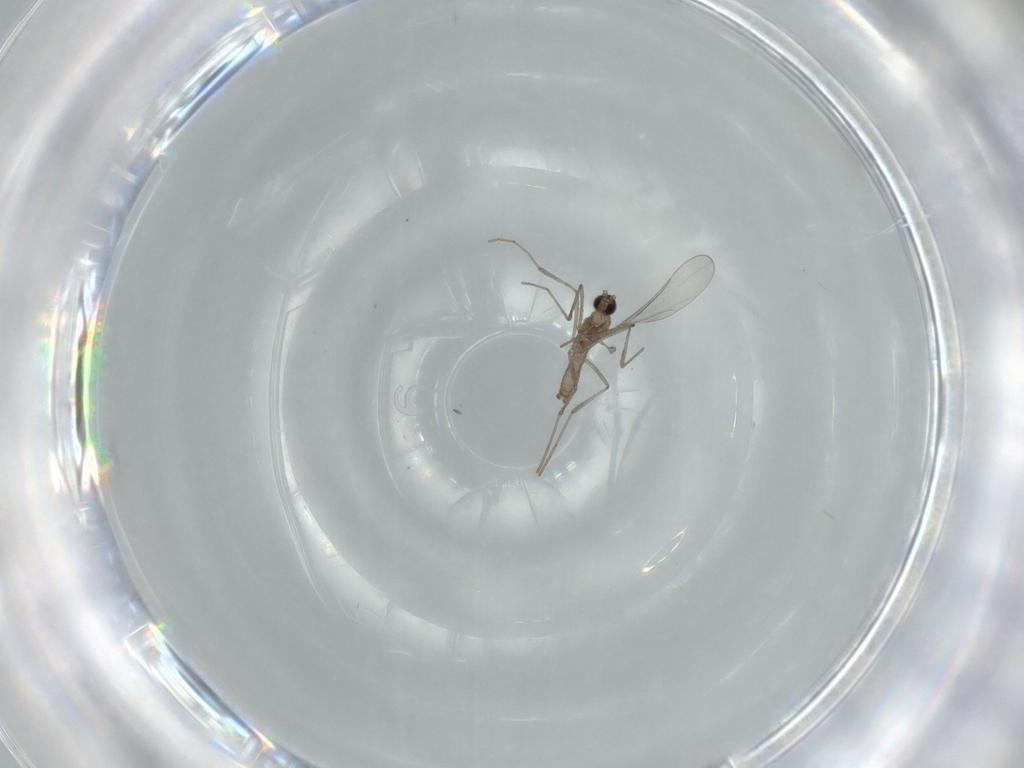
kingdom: Animalia
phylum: Arthropoda
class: Insecta
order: Diptera
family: Cecidomyiidae
